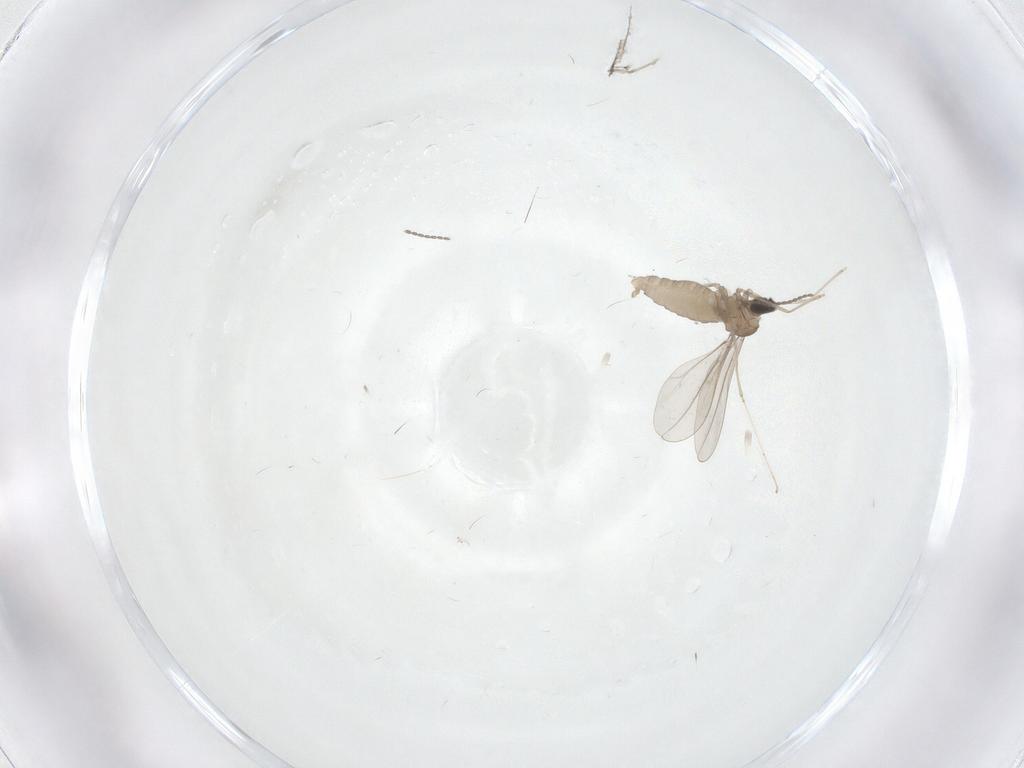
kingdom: Animalia
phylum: Arthropoda
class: Insecta
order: Diptera
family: Cecidomyiidae
